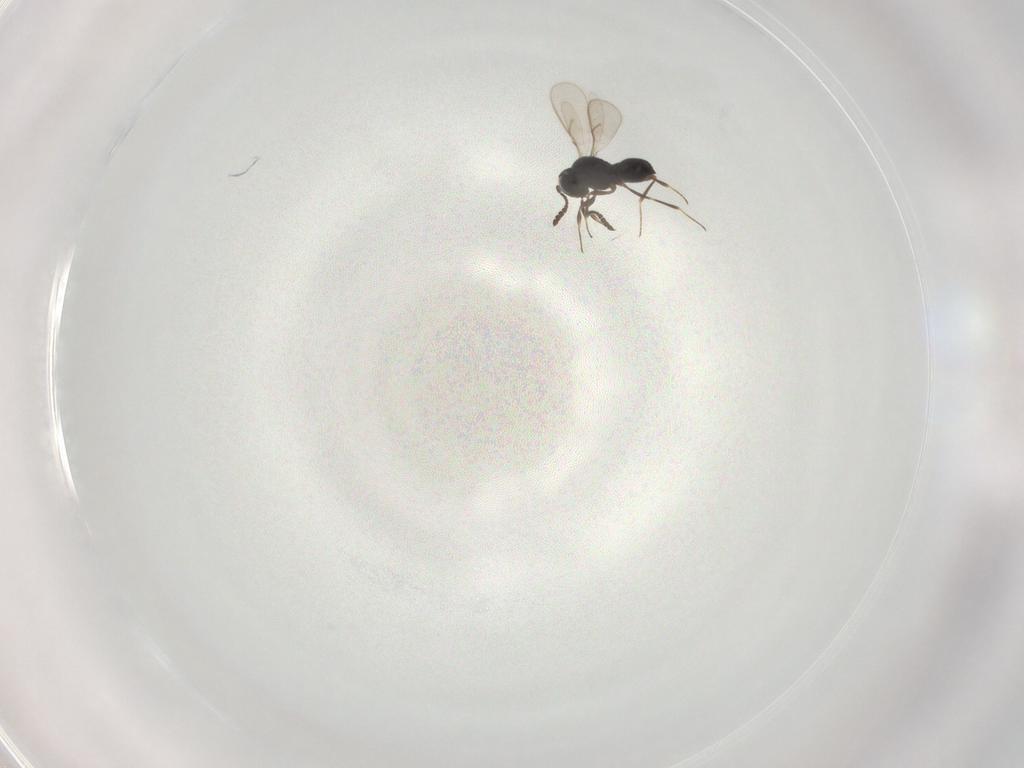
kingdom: Animalia
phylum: Arthropoda
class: Insecta
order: Hymenoptera
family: Scelionidae
